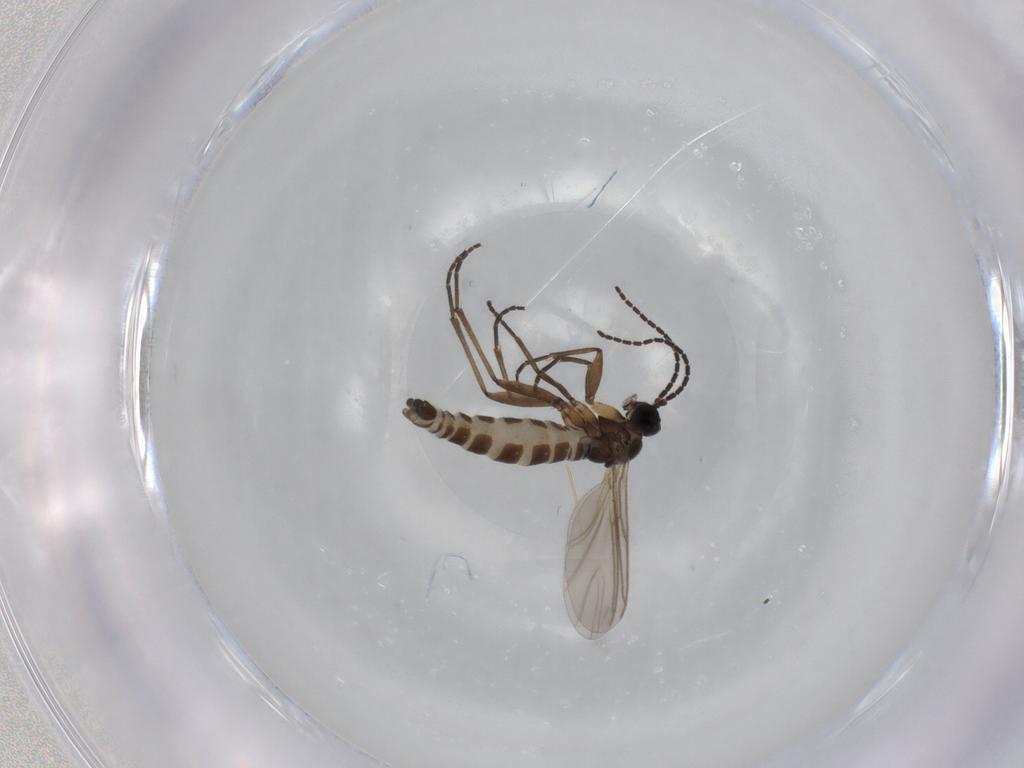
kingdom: Animalia
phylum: Arthropoda
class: Insecta
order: Diptera
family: Sciaridae
